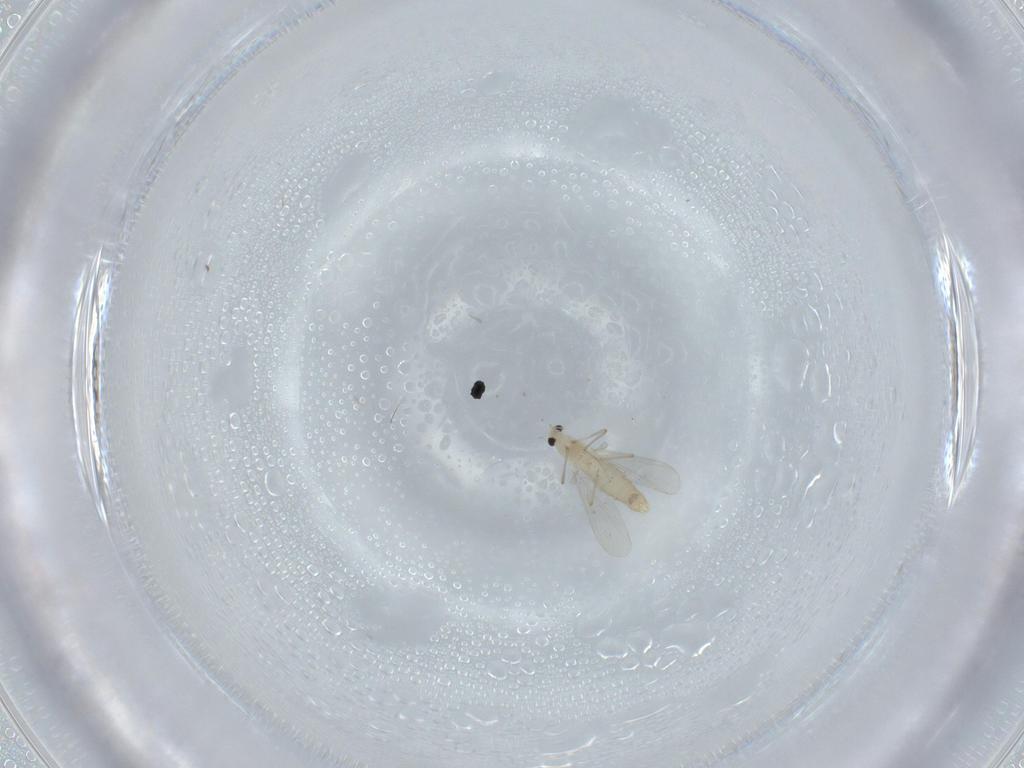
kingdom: Animalia
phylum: Arthropoda
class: Insecta
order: Diptera
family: Chironomidae
